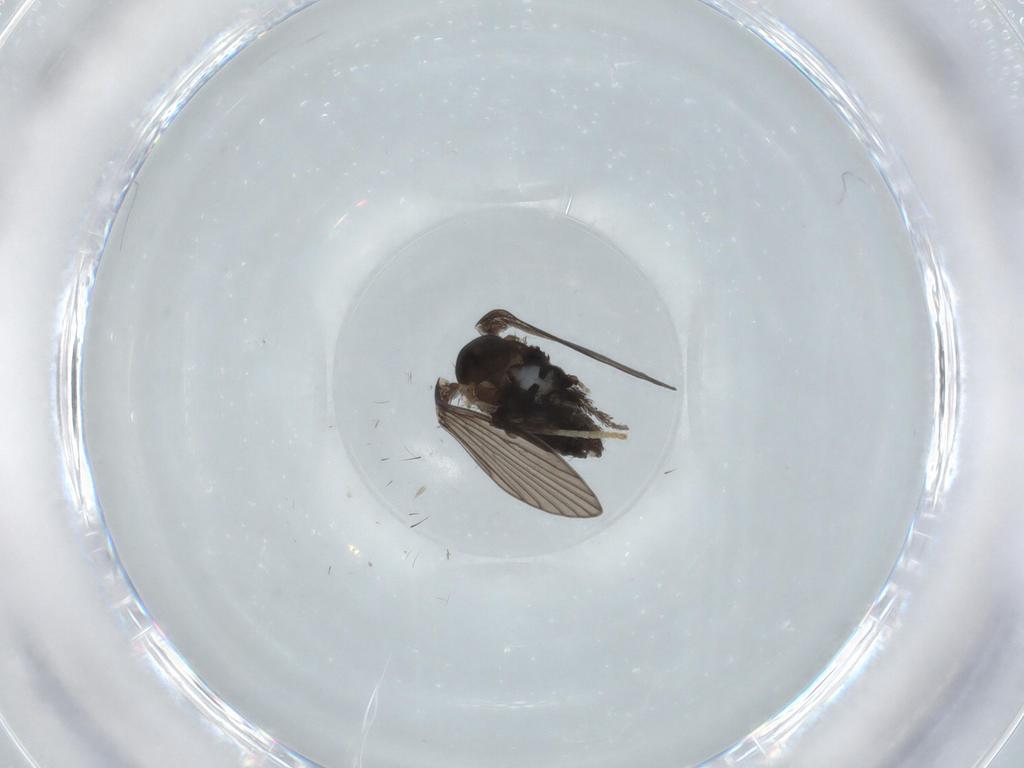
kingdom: Animalia
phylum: Arthropoda
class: Insecta
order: Diptera
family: Psychodidae
